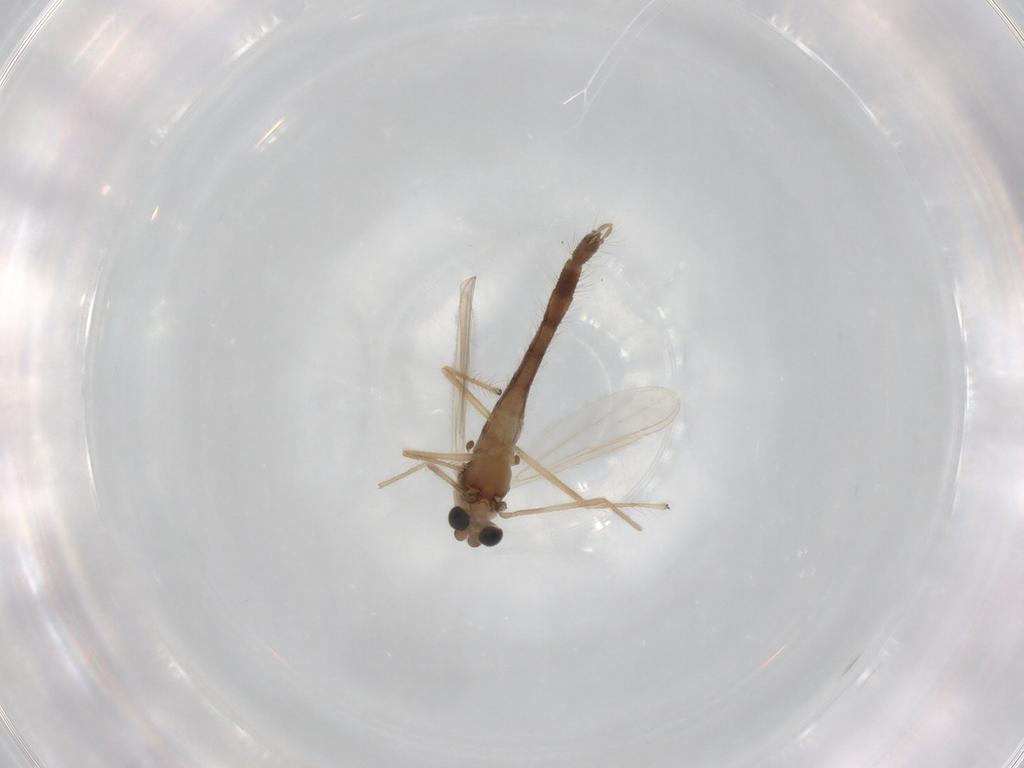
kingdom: Animalia
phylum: Arthropoda
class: Insecta
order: Diptera
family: Chironomidae
